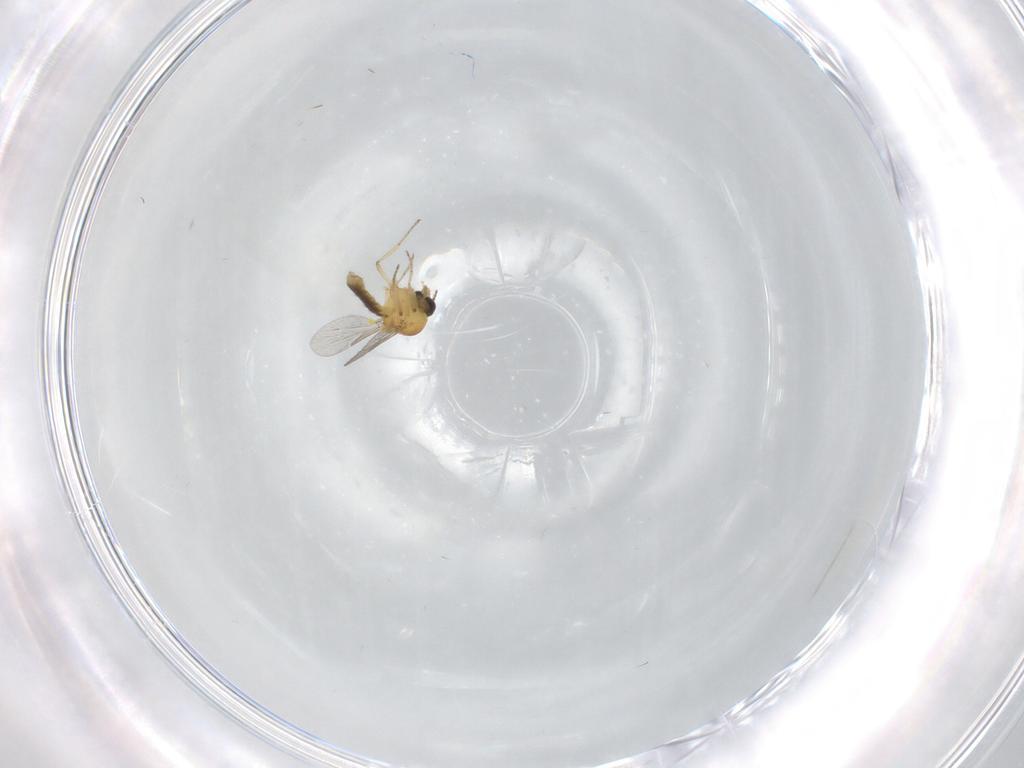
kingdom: Animalia
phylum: Arthropoda
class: Insecta
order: Diptera
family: Ceratopogonidae
